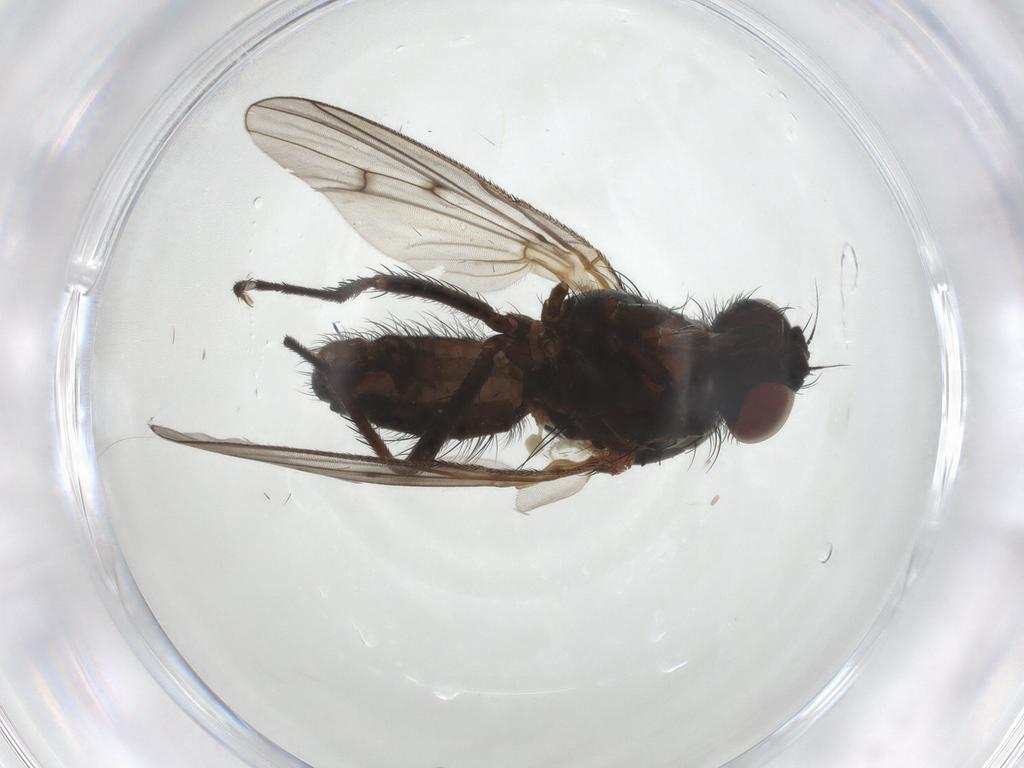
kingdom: Animalia
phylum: Arthropoda
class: Insecta
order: Diptera
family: Anthomyiidae
